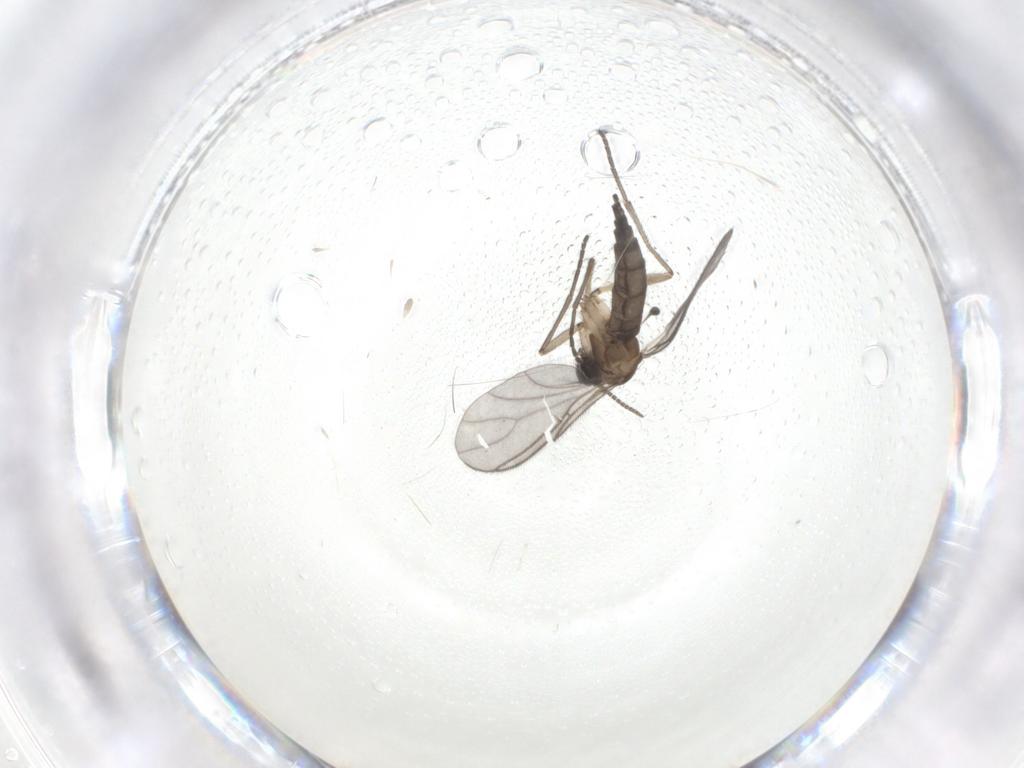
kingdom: Animalia
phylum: Arthropoda
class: Insecta
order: Diptera
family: Sciaridae
